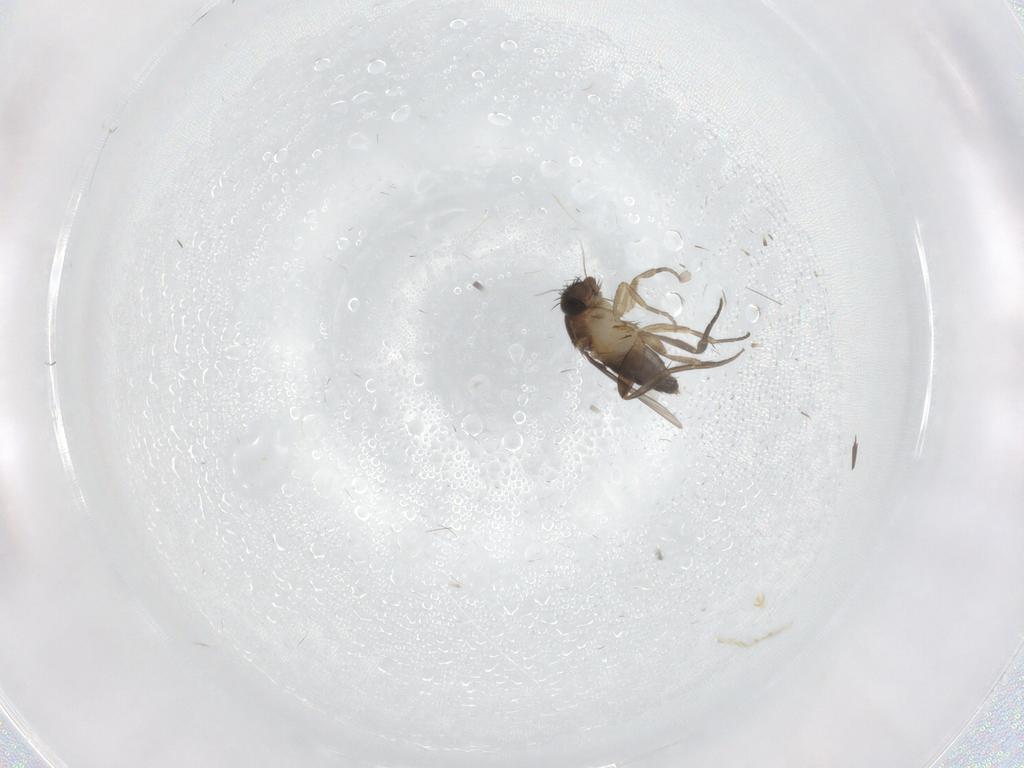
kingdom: Animalia
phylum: Arthropoda
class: Insecta
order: Diptera
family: Phoridae
